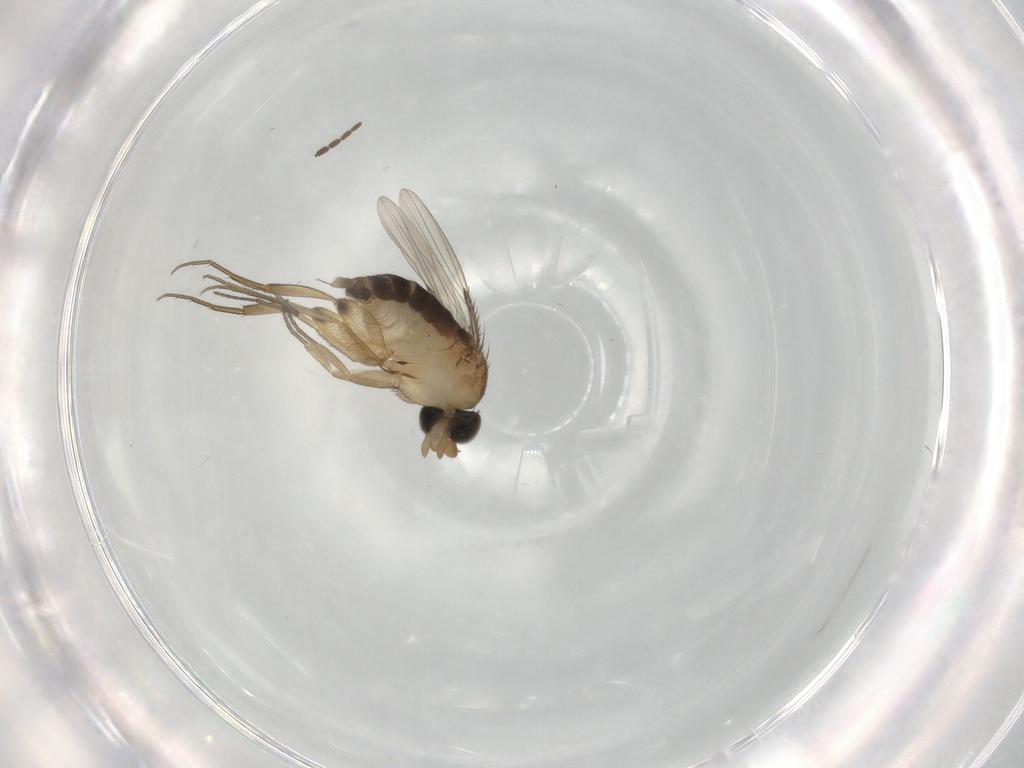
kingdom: Animalia
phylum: Arthropoda
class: Insecta
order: Diptera
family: Phoridae
